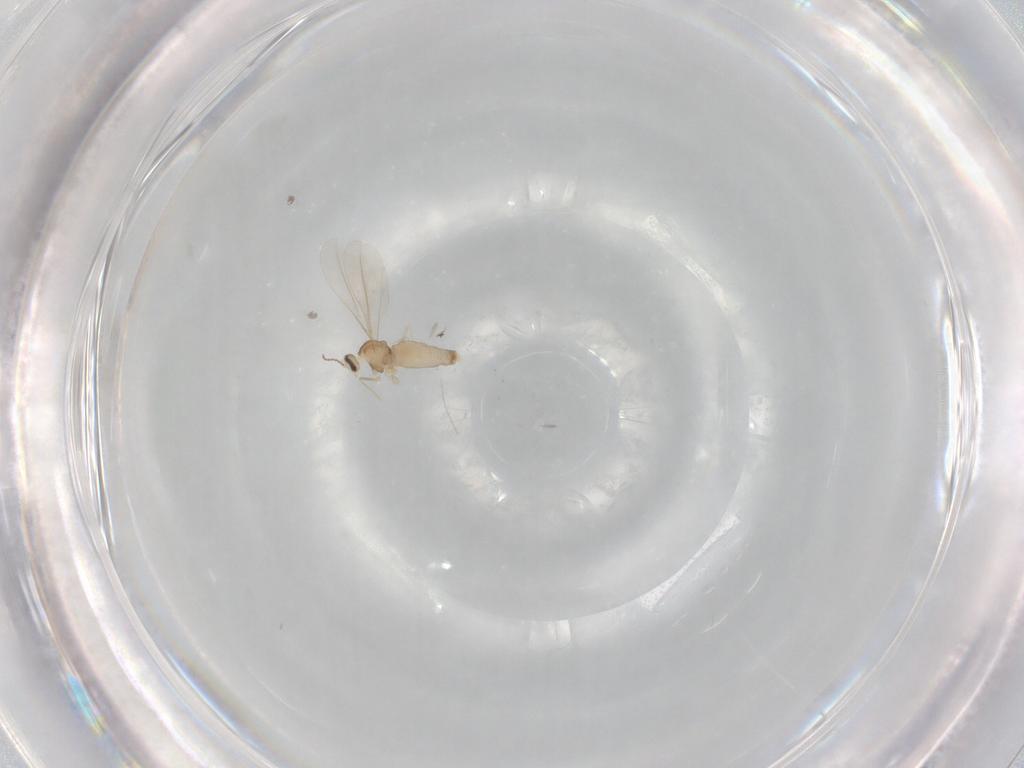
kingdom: Animalia
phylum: Arthropoda
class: Insecta
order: Diptera
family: Cecidomyiidae
